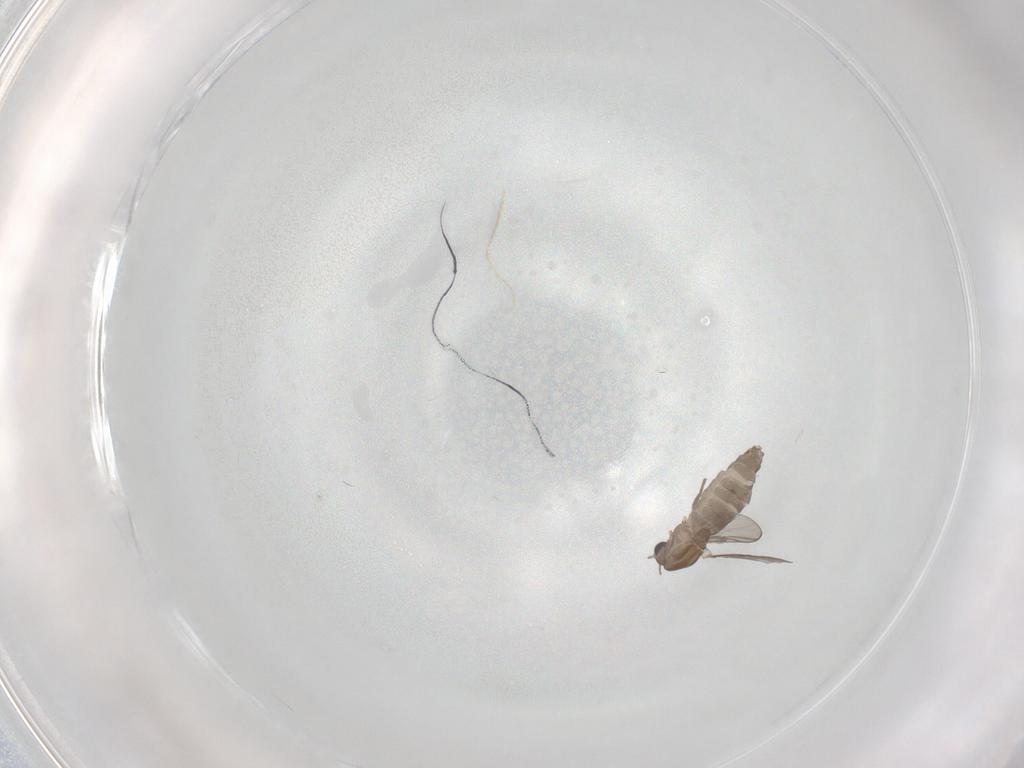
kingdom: Animalia
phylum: Arthropoda
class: Insecta
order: Diptera
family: Chironomidae
